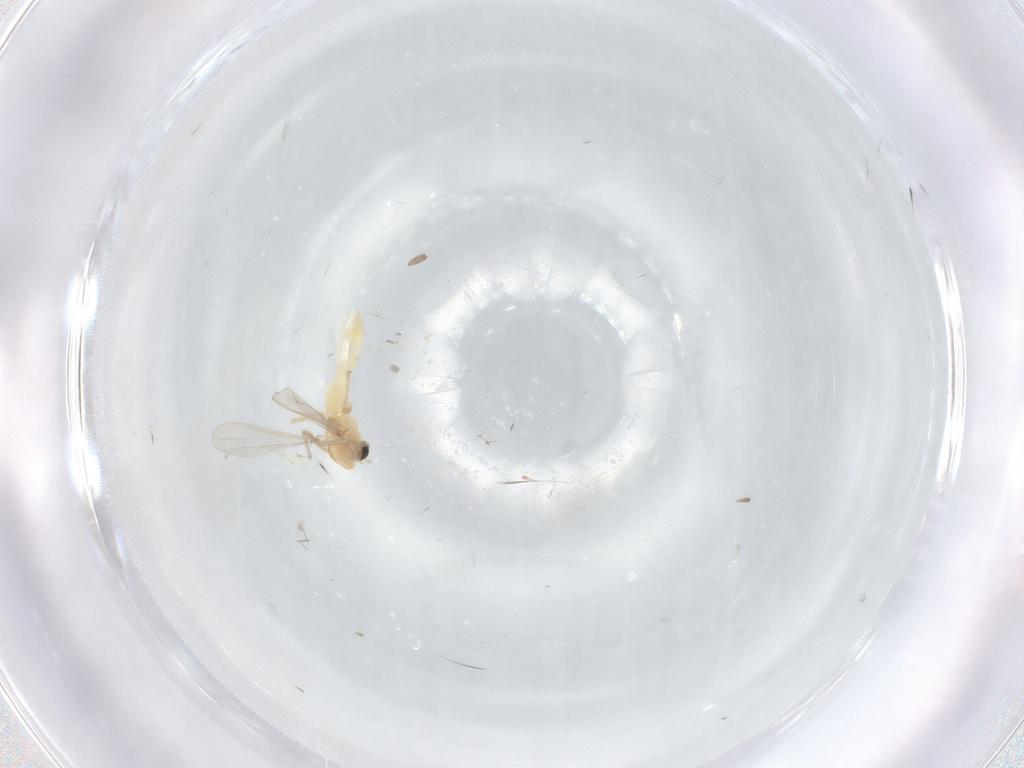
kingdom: Animalia
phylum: Arthropoda
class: Insecta
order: Diptera
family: Chironomidae
